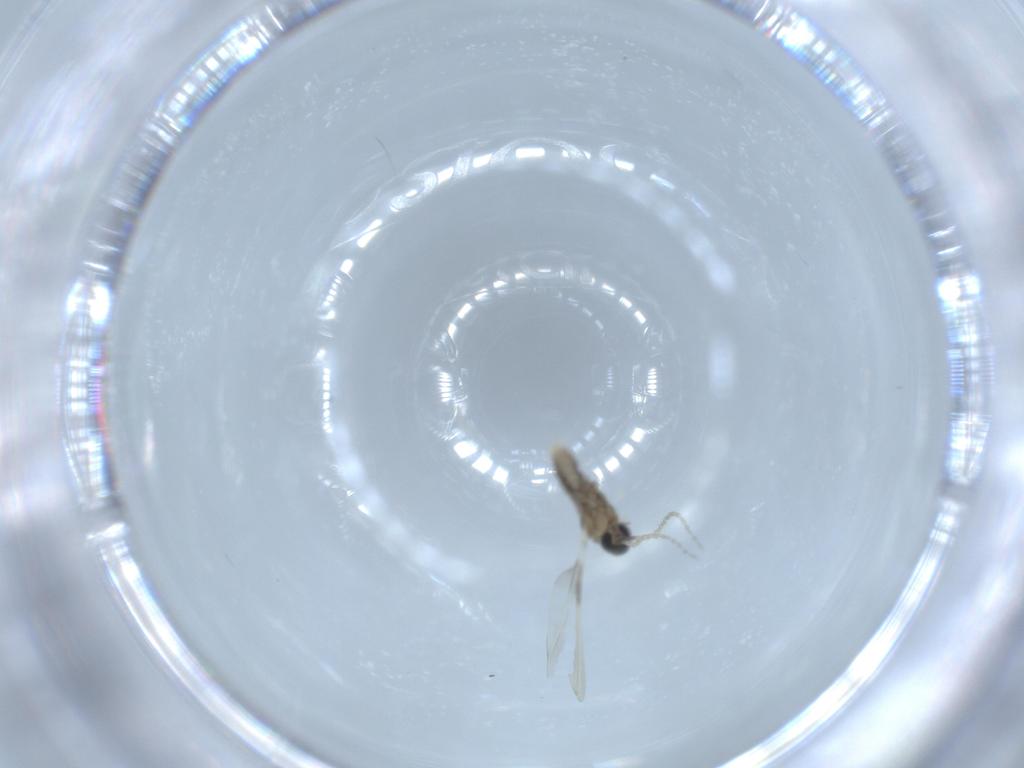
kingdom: Animalia
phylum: Arthropoda
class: Insecta
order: Diptera
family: Cecidomyiidae
